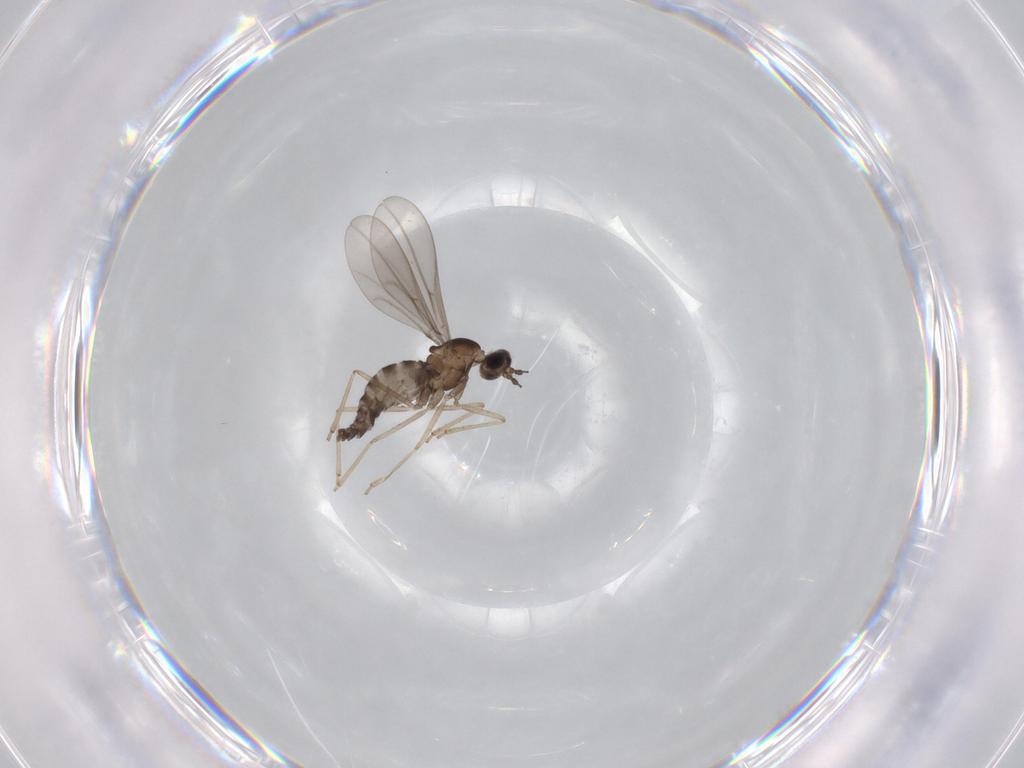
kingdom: Animalia
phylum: Arthropoda
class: Insecta
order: Diptera
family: Chironomidae
